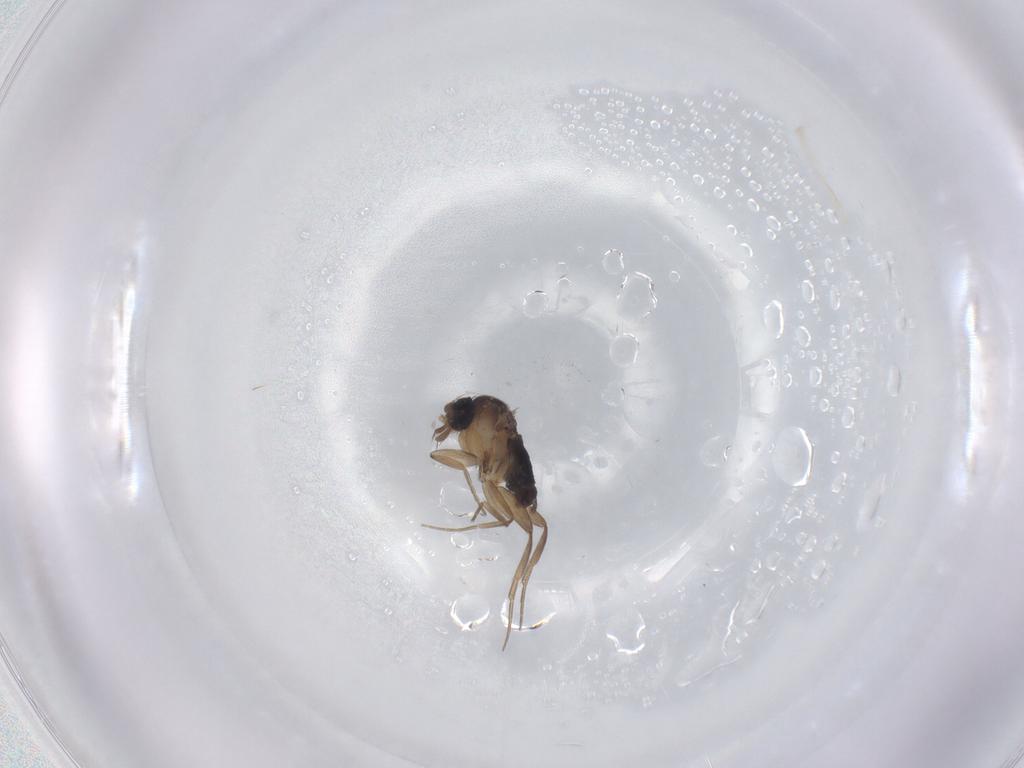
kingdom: Animalia
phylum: Arthropoda
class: Insecta
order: Diptera
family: Phoridae
